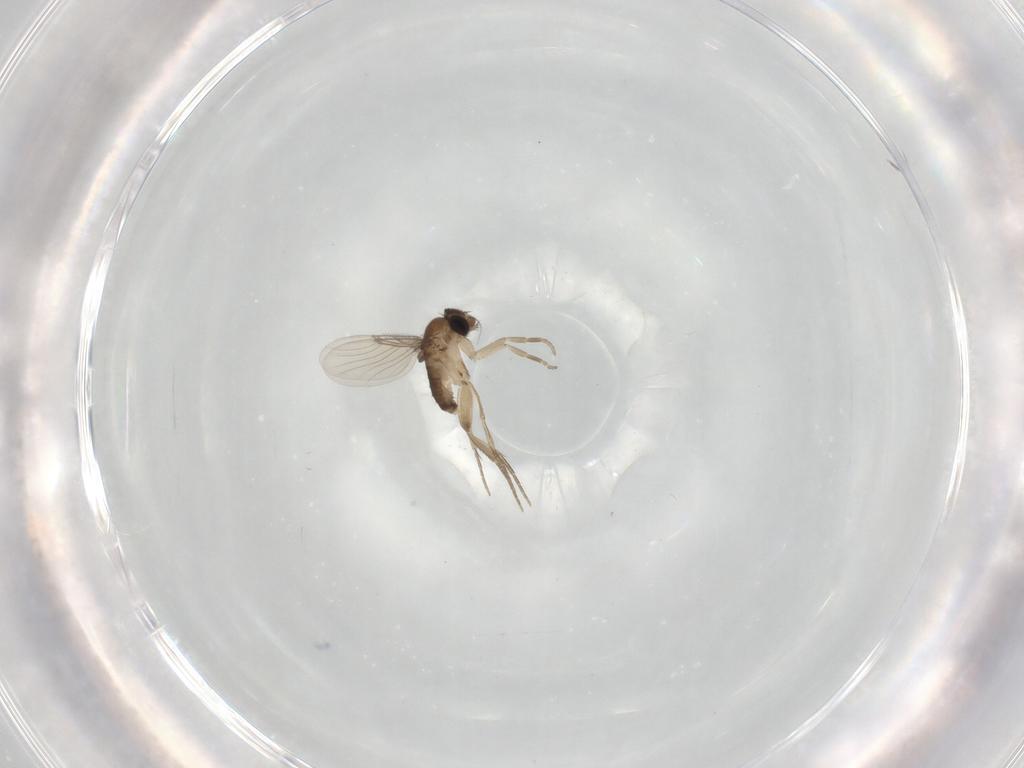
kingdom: Animalia
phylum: Arthropoda
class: Insecta
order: Diptera
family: Phoridae
